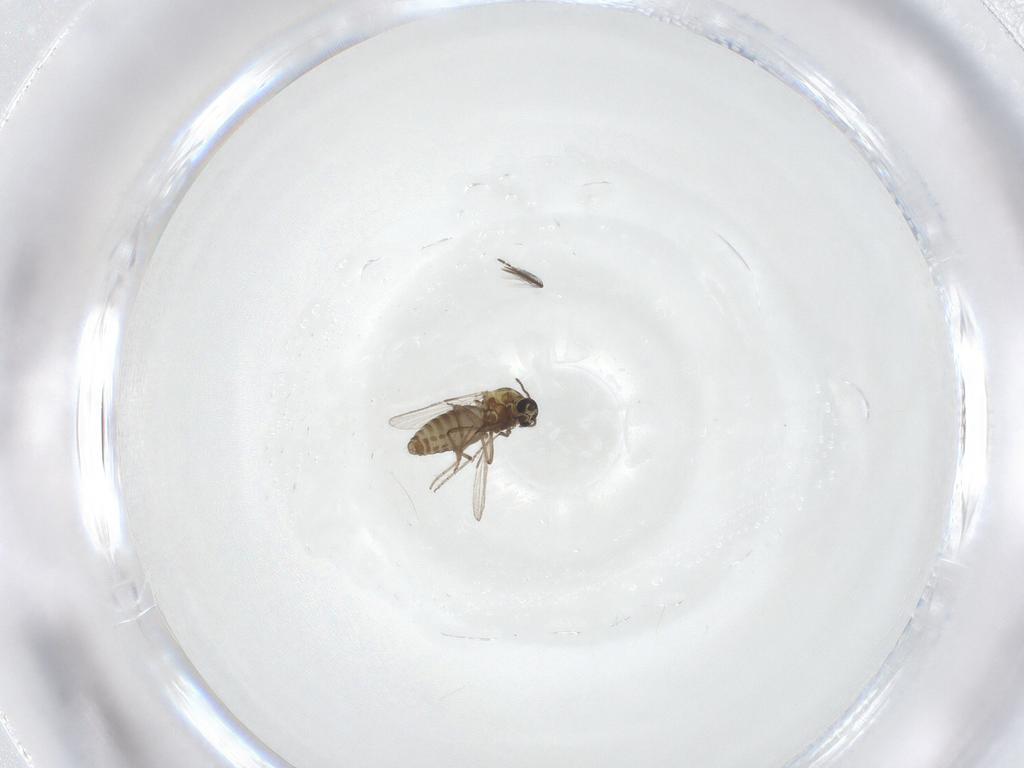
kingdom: Animalia
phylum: Arthropoda
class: Insecta
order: Diptera
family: Ceratopogonidae
